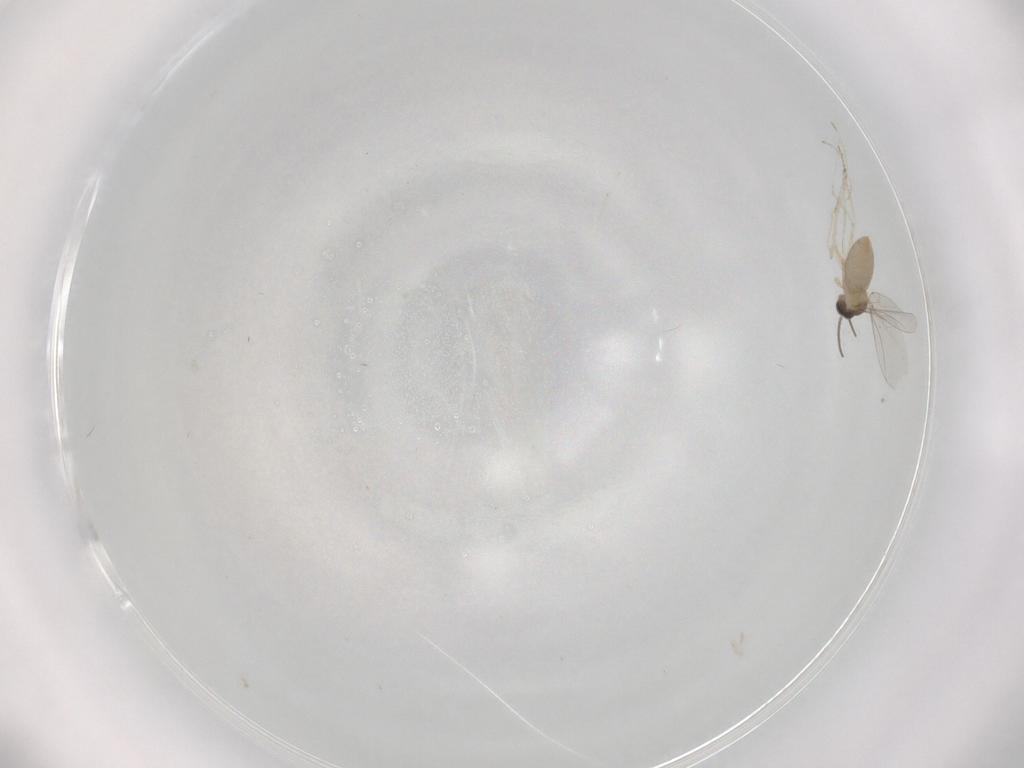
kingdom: Animalia
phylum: Arthropoda
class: Insecta
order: Diptera
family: Cecidomyiidae
